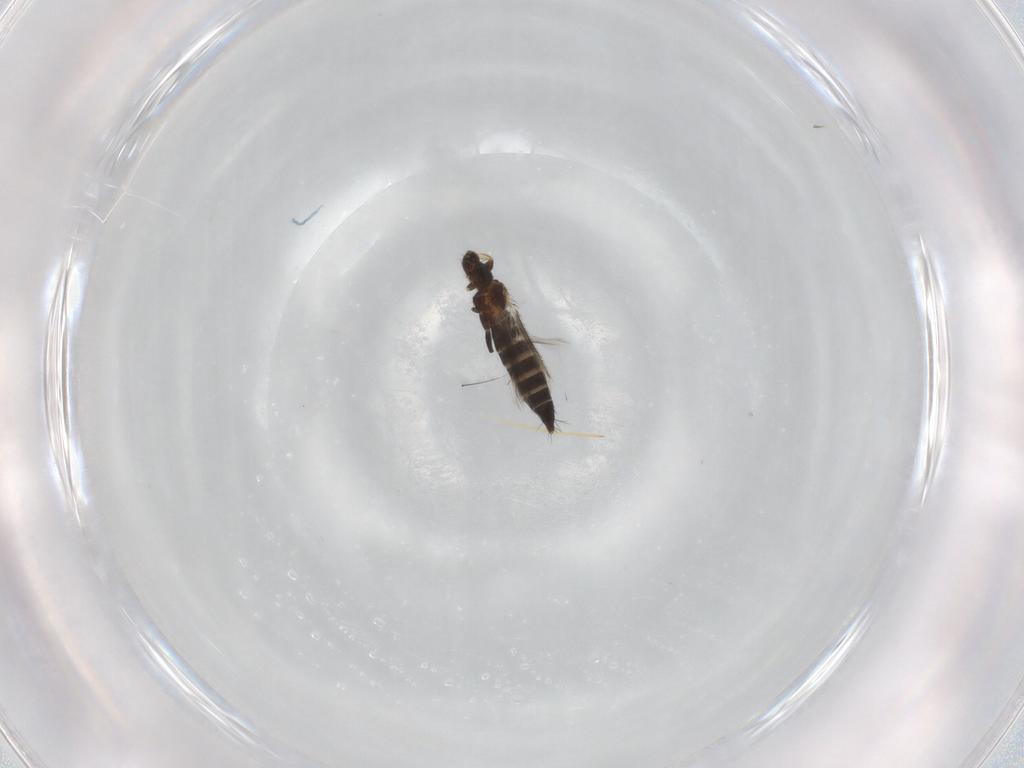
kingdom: Animalia
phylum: Arthropoda
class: Insecta
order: Thysanoptera
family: Thripidae
